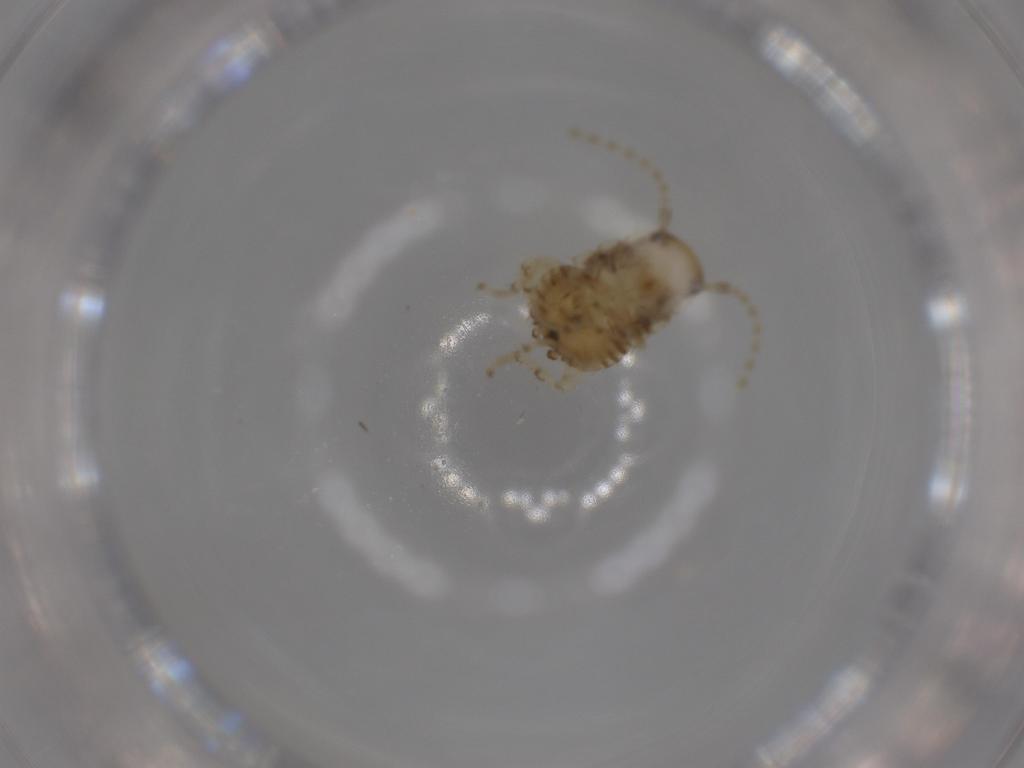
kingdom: Animalia
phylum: Arthropoda
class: Insecta
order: Blattodea
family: Ectobiidae
